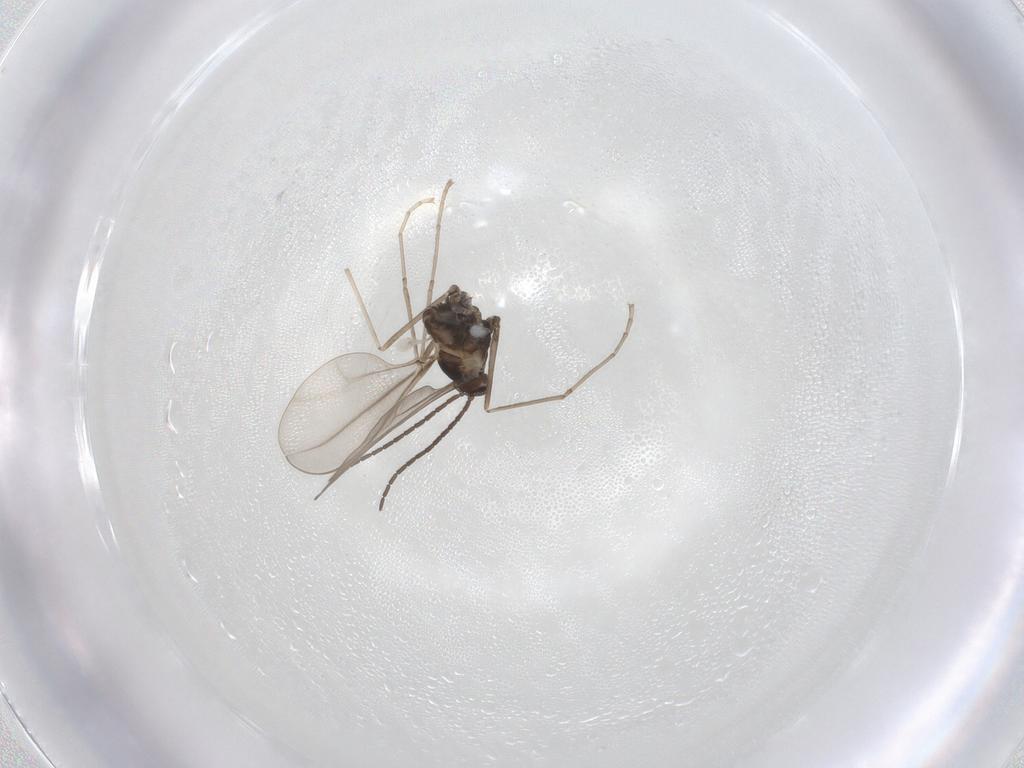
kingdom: Animalia
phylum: Arthropoda
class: Insecta
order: Diptera
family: Cecidomyiidae
